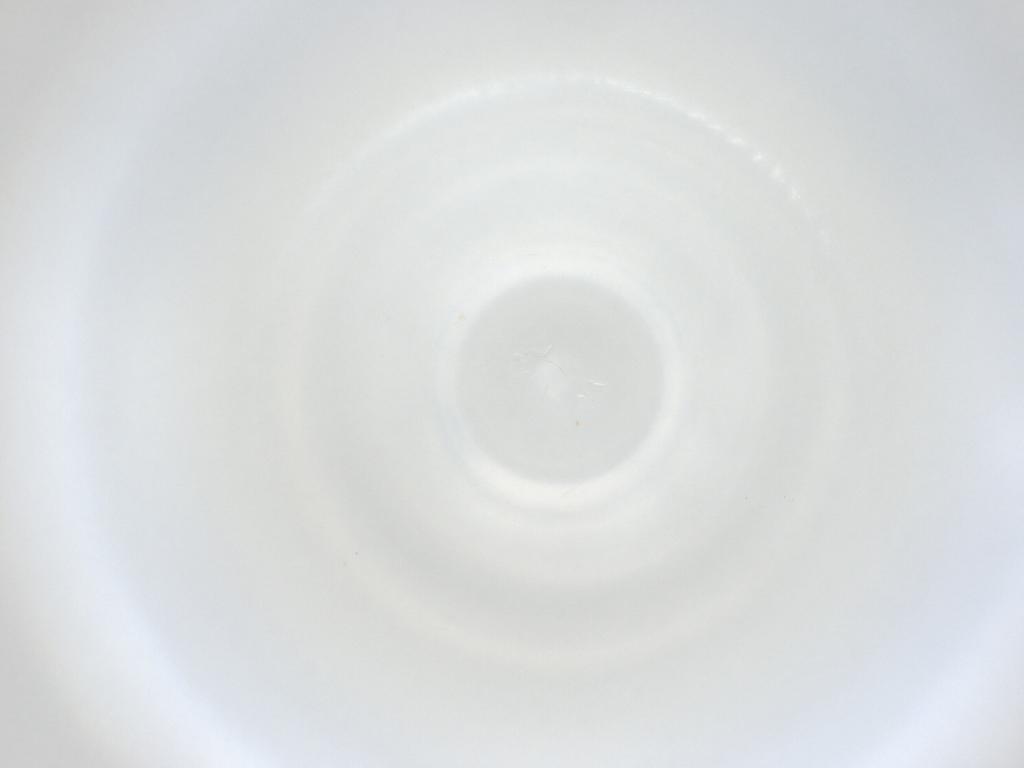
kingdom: Animalia
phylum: Arthropoda
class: Insecta
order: Diptera
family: Cecidomyiidae
